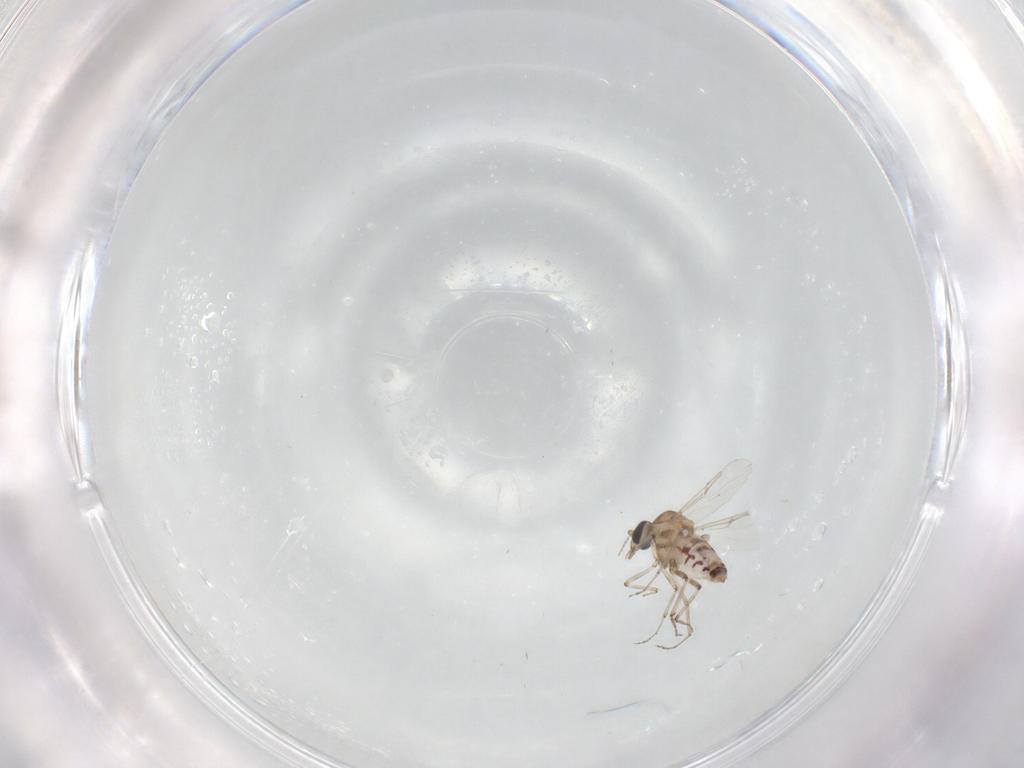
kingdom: Animalia
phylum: Arthropoda
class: Insecta
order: Diptera
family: Ceratopogonidae
